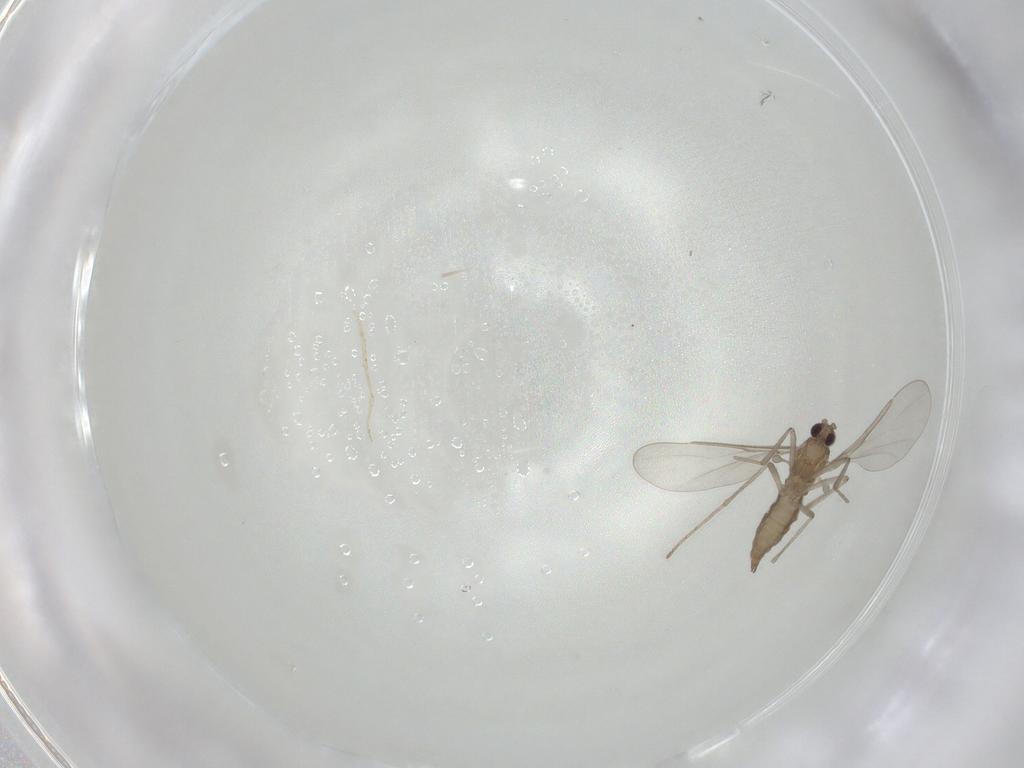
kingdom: Animalia
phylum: Arthropoda
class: Insecta
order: Diptera
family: Cecidomyiidae
